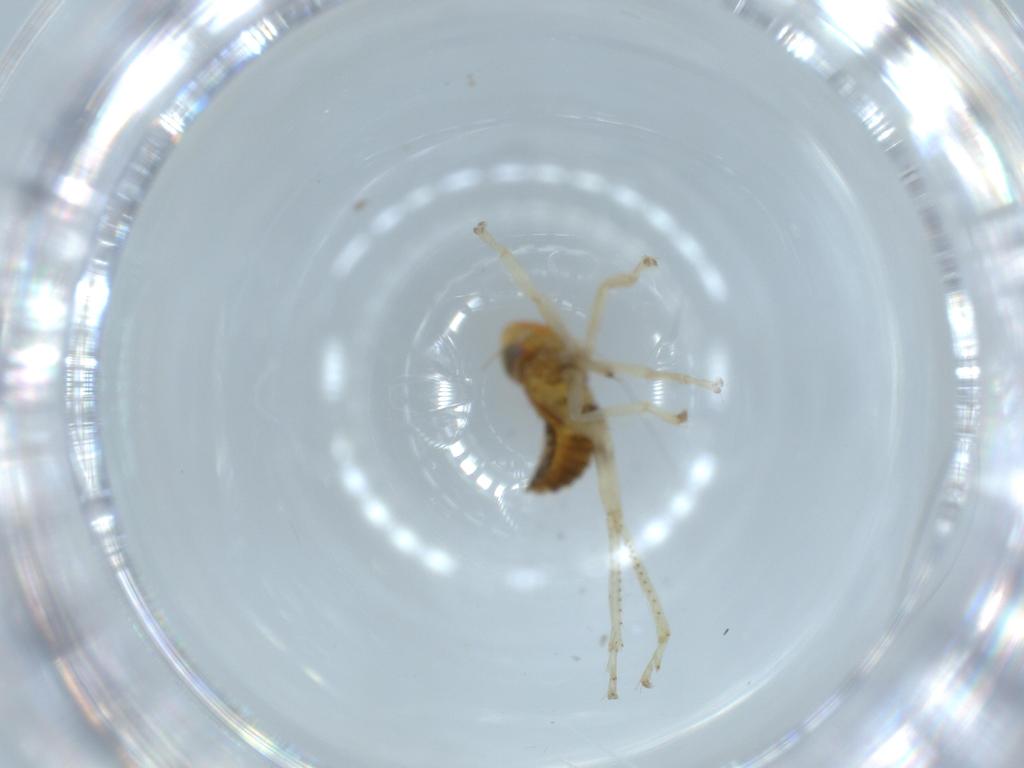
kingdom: Animalia
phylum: Arthropoda
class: Insecta
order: Hemiptera
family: Cicadellidae
